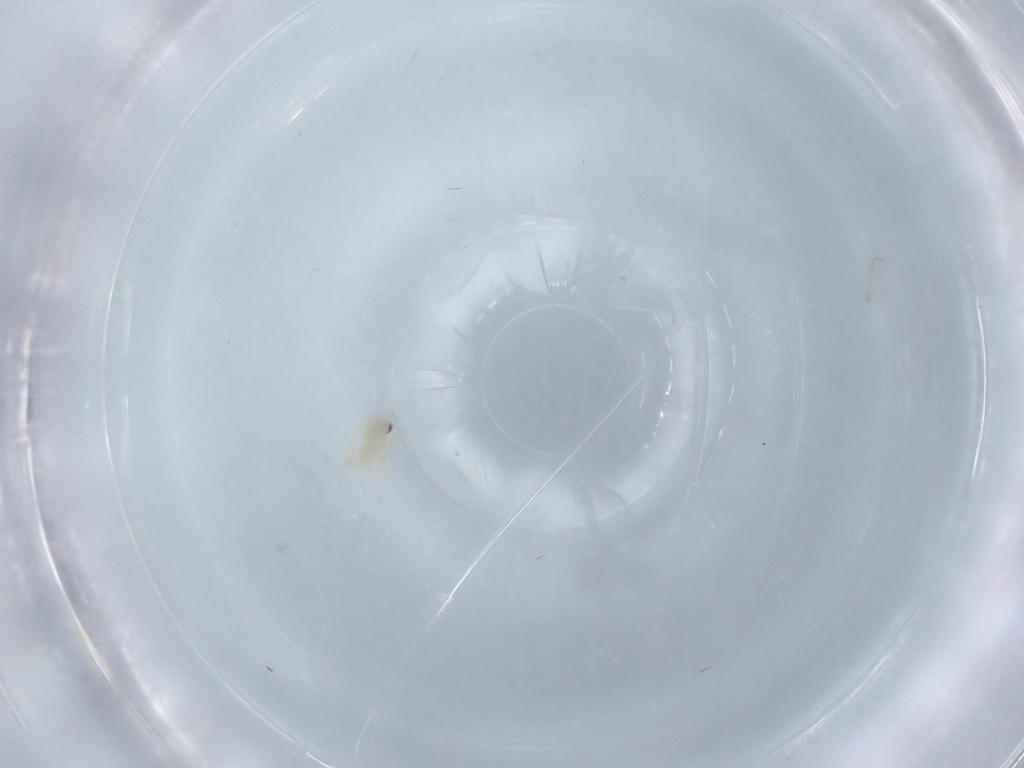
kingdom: Animalia
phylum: Arthropoda
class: Insecta
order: Hemiptera
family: Aleyrodidae
